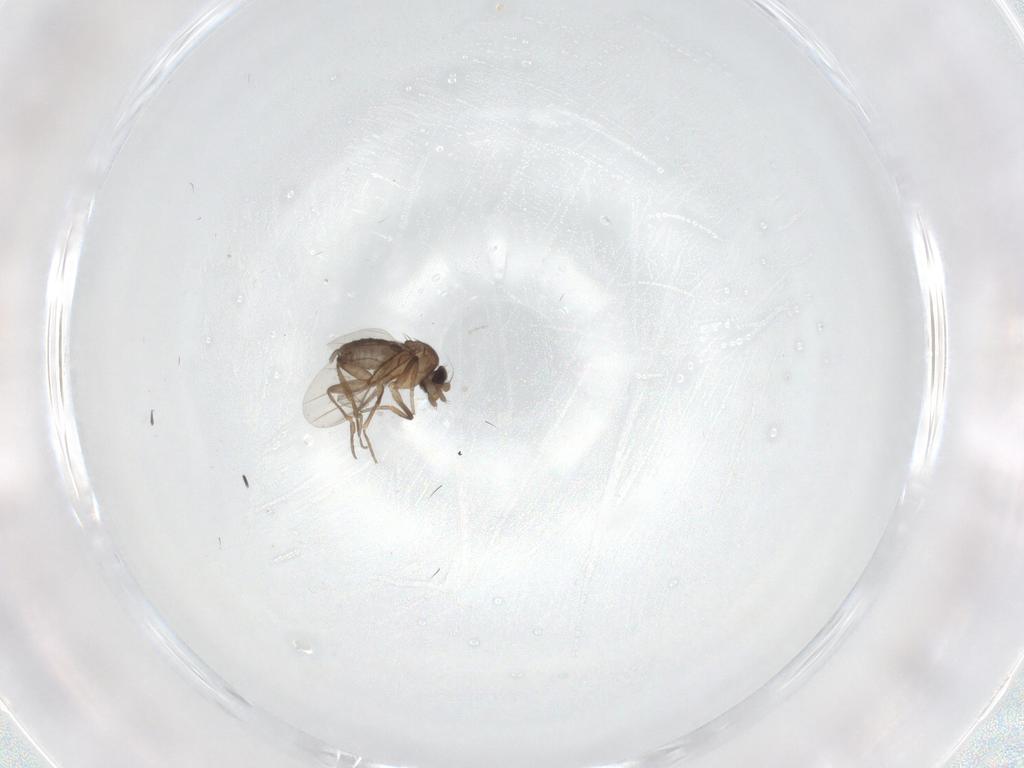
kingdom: Animalia
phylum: Arthropoda
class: Insecta
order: Diptera
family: Phoridae
